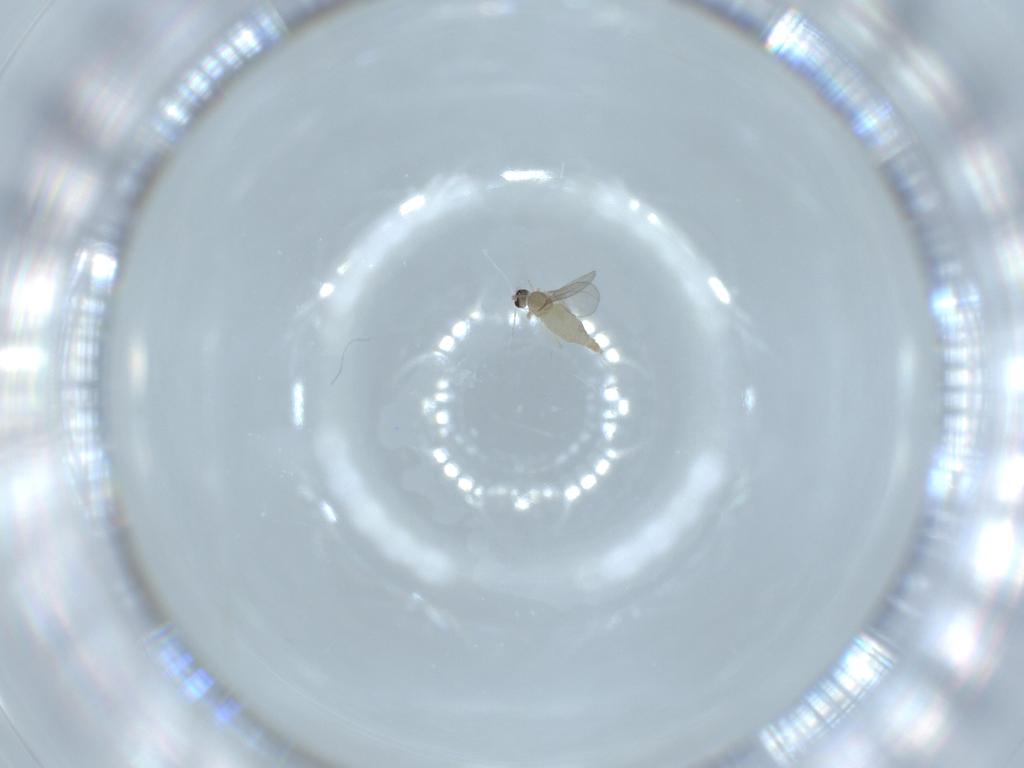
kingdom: Animalia
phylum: Arthropoda
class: Insecta
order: Diptera
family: Cecidomyiidae
